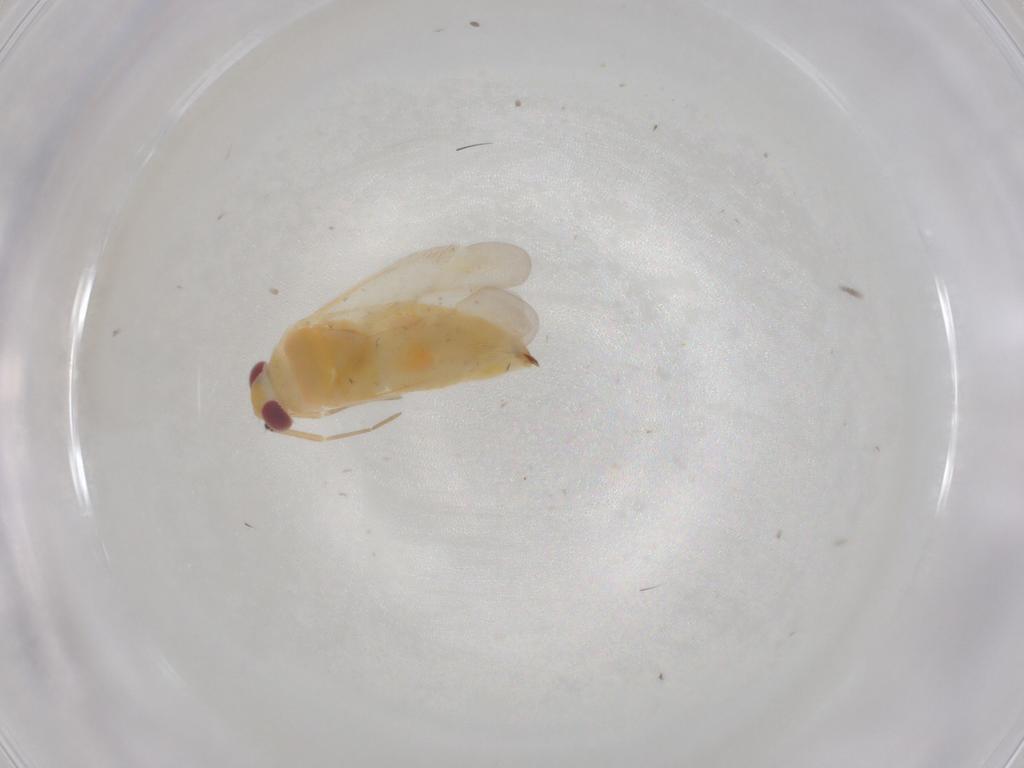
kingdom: Animalia
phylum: Arthropoda
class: Insecta
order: Hemiptera
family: Miridae
